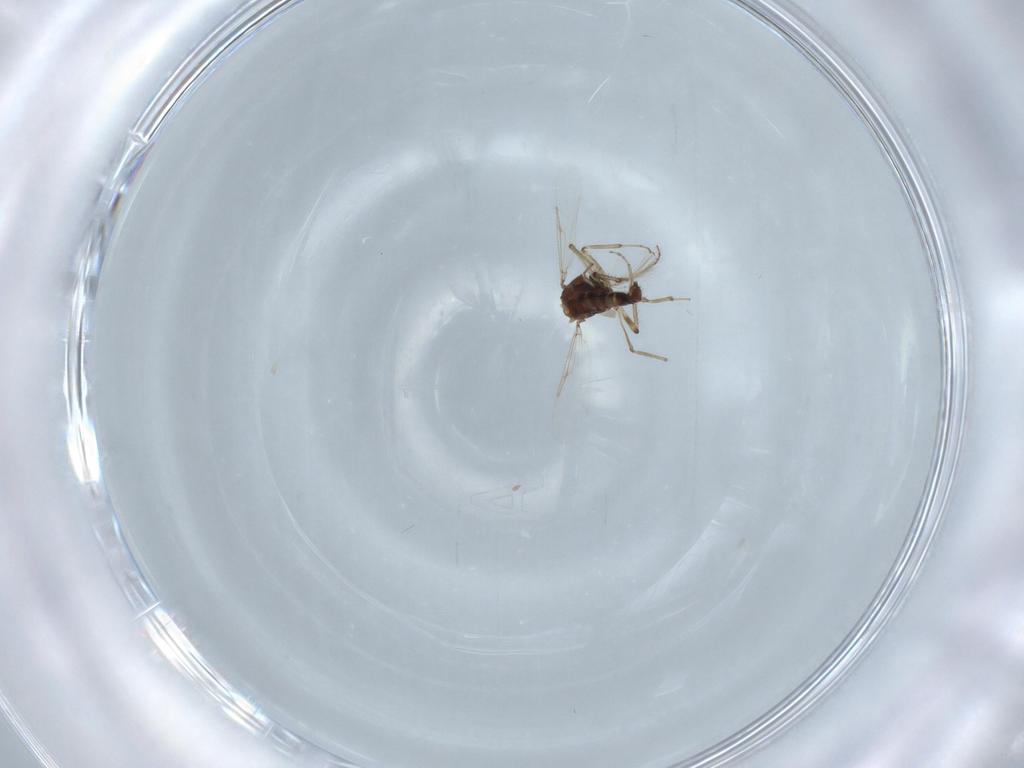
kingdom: Animalia
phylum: Arthropoda
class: Insecta
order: Diptera
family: Ceratopogonidae
